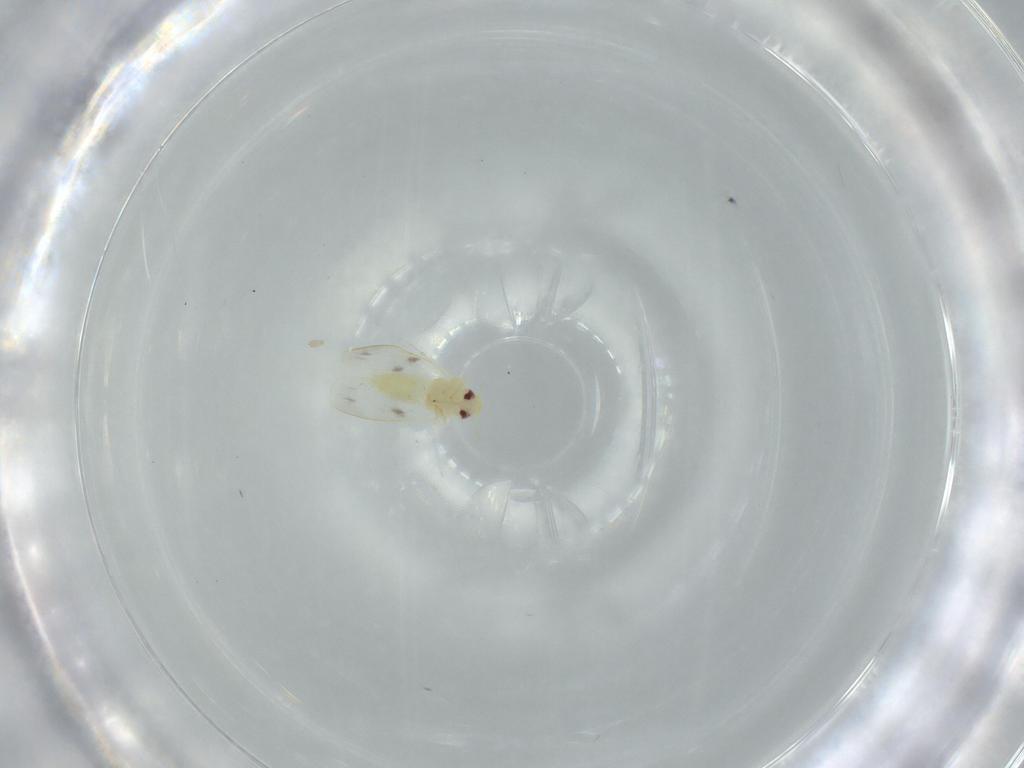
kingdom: Animalia
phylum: Arthropoda
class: Insecta
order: Hemiptera
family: Aleyrodidae
